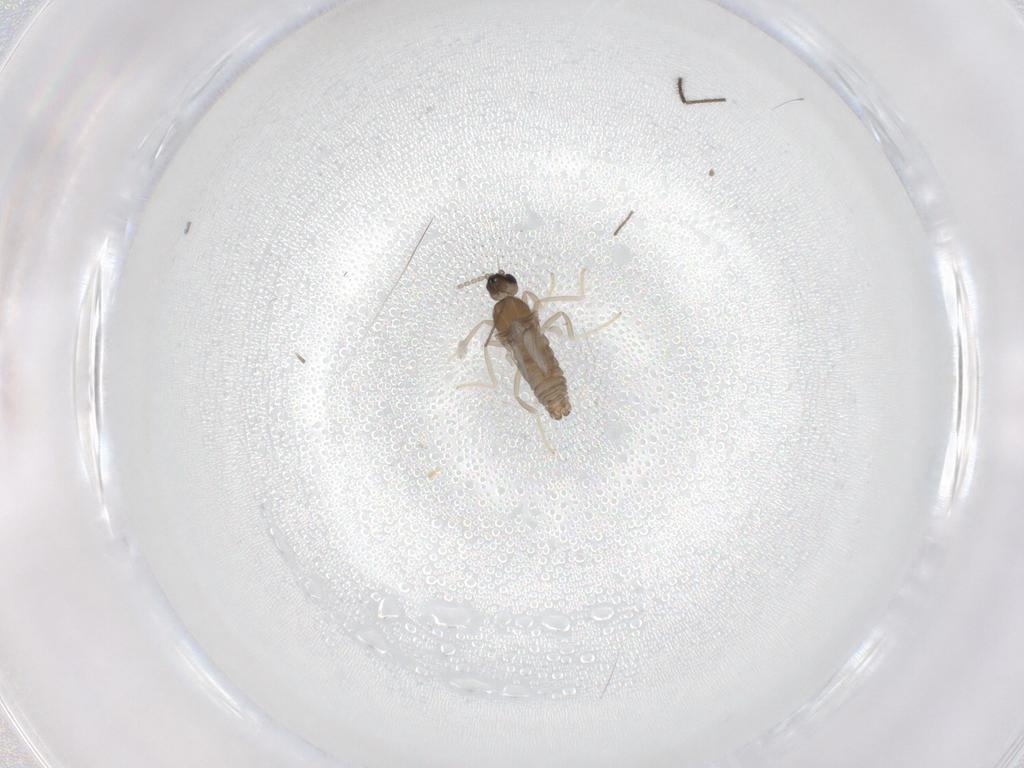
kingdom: Animalia
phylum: Arthropoda
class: Insecta
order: Diptera
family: Cecidomyiidae
